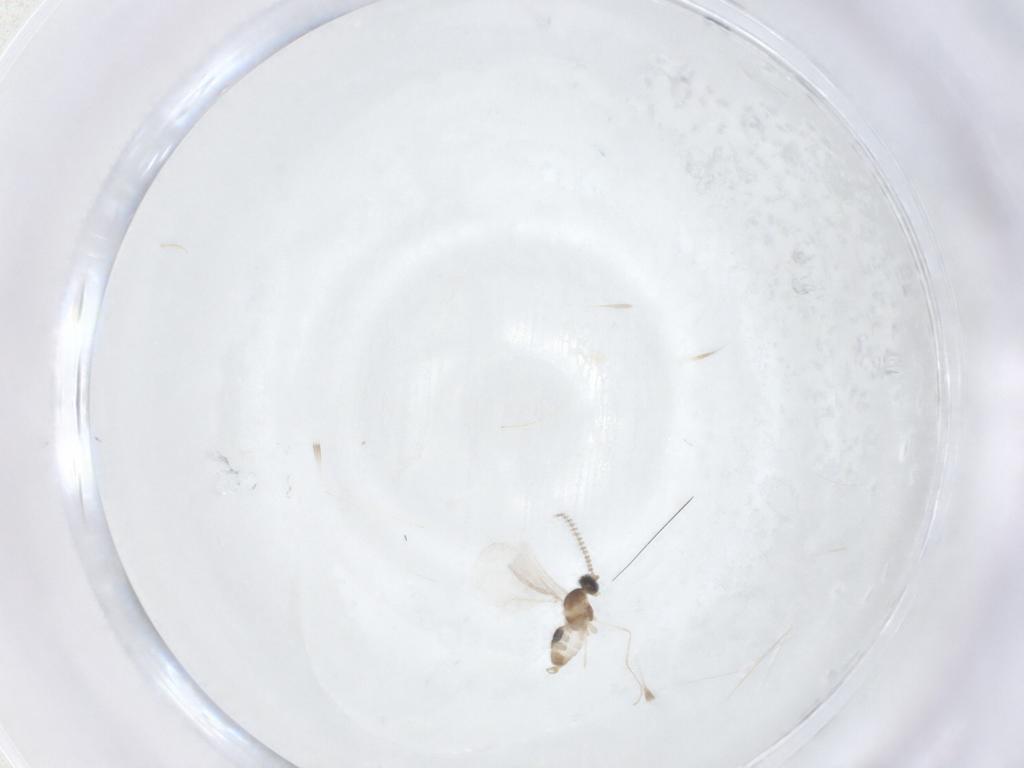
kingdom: Animalia
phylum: Arthropoda
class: Insecta
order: Diptera
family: Cecidomyiidae
